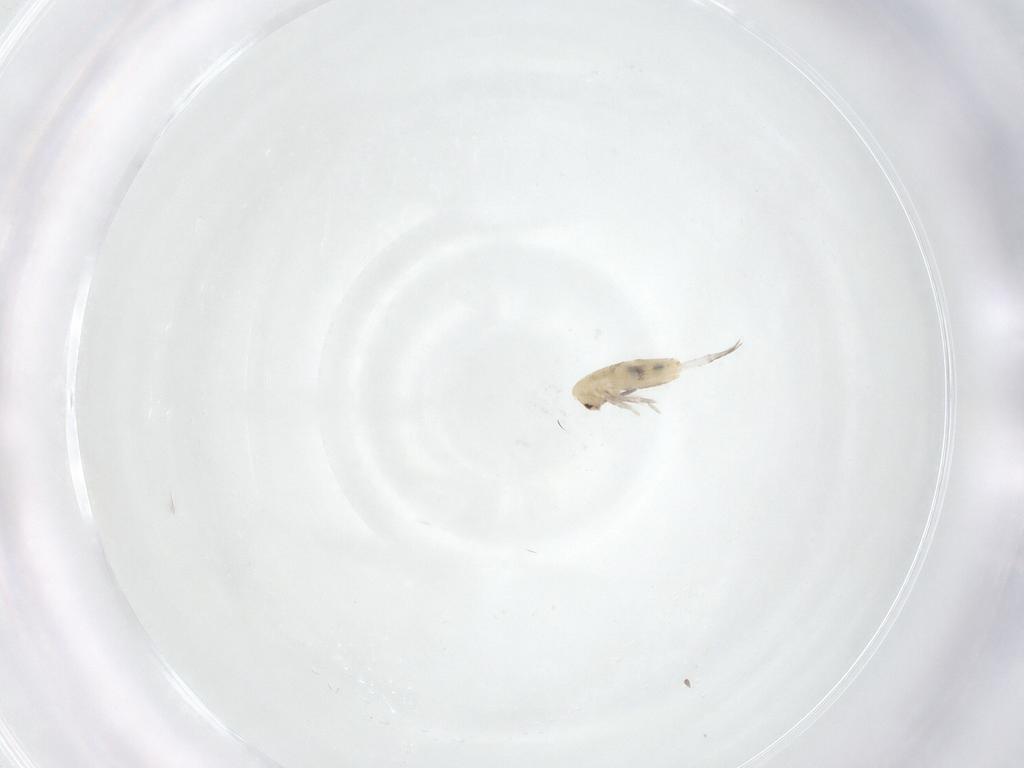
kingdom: Animalia
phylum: Arthropoda
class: Collembola
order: Entomobryomorpha
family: Entomobryidae
